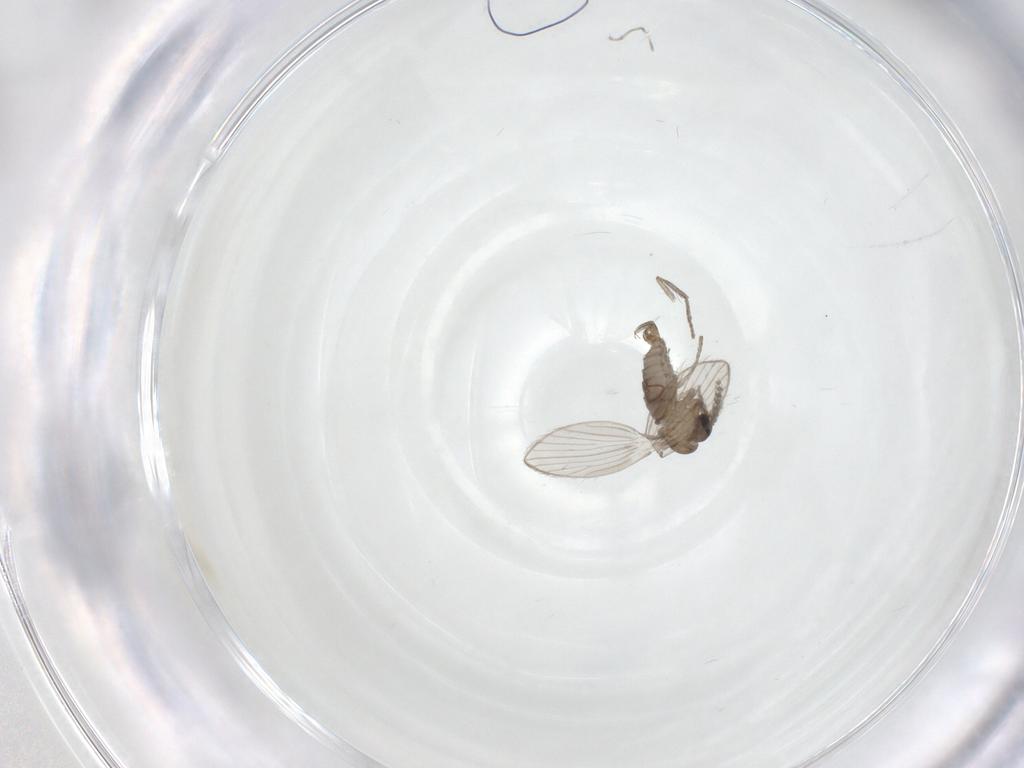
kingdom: Animalia
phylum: Arthropoda
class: Insecta
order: Diptera
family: Psychodidae
